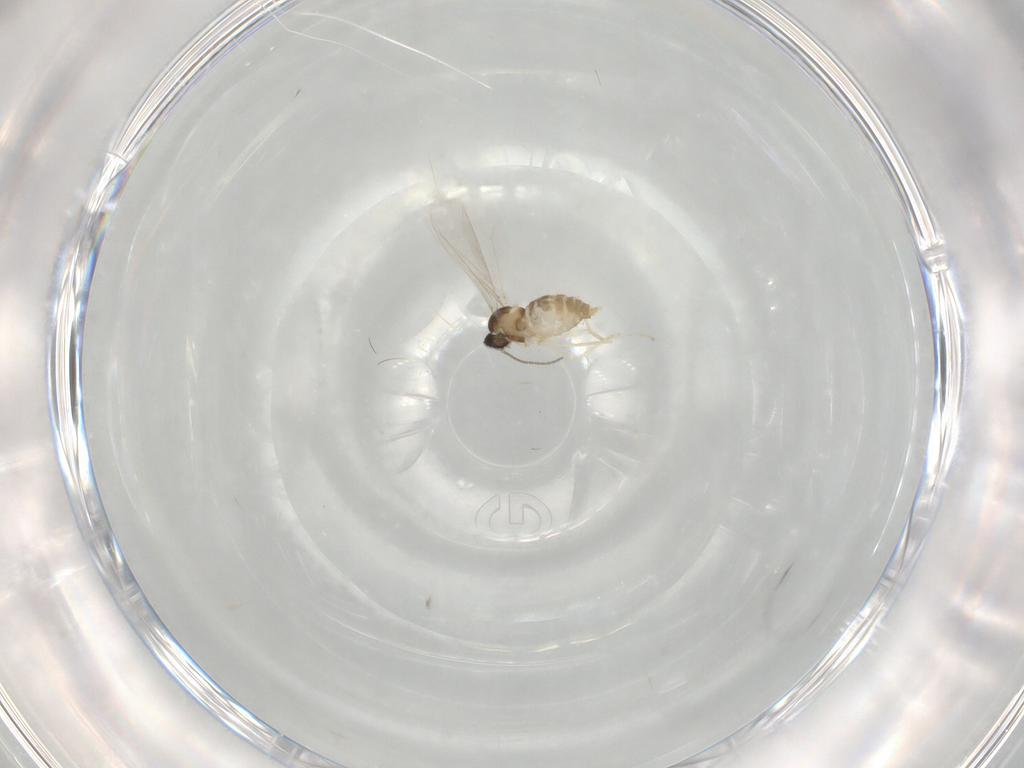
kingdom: Animalia
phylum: Arthropoda
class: Insecta
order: Diptera
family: Cecidomyiidae
